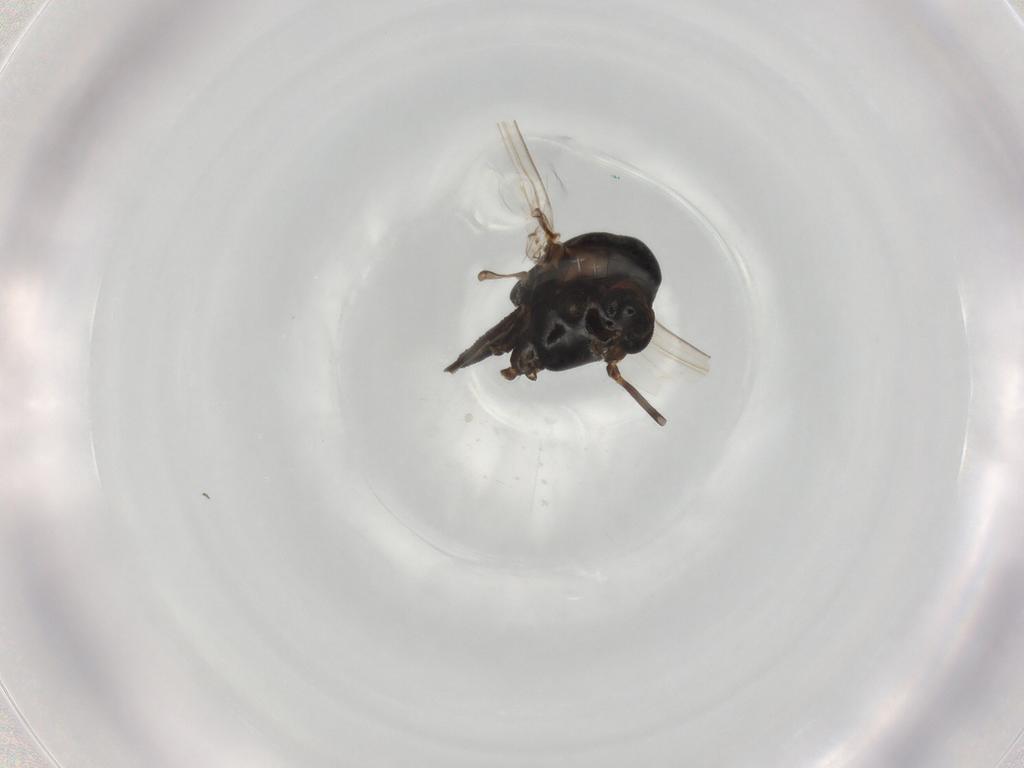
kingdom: Animalia
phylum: Arthropoda
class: Insecta
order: Diptera
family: Chironomidae
